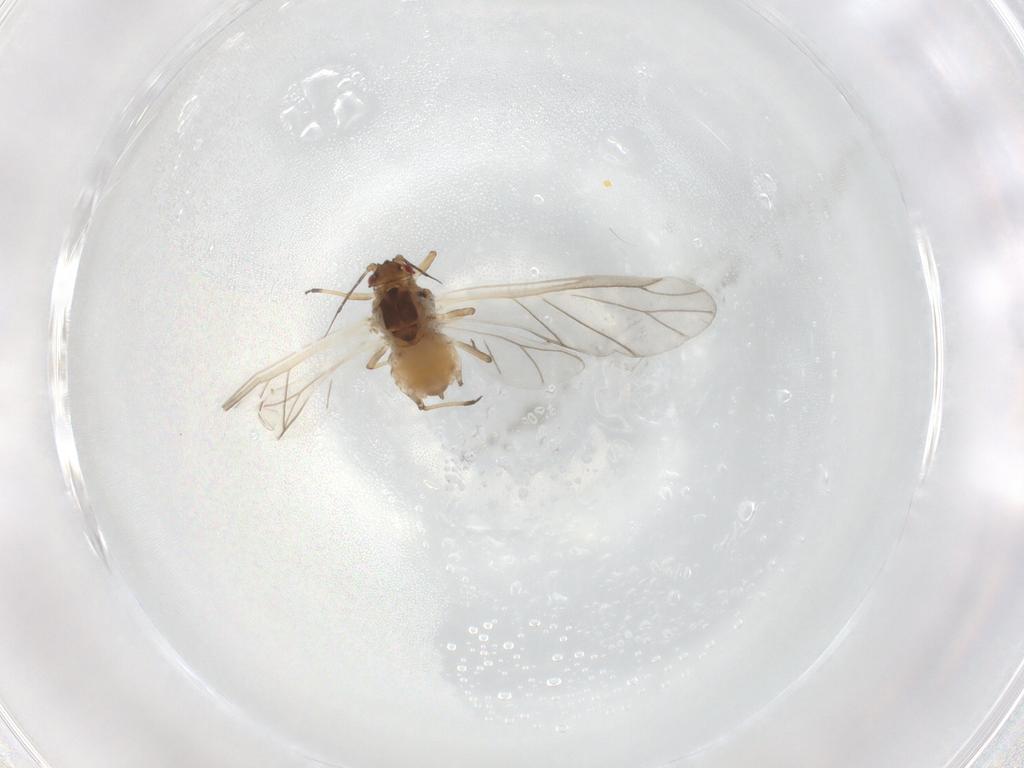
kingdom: Animalia
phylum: Arthropoda
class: Insecta
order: Hemiptera
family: Aphididae
